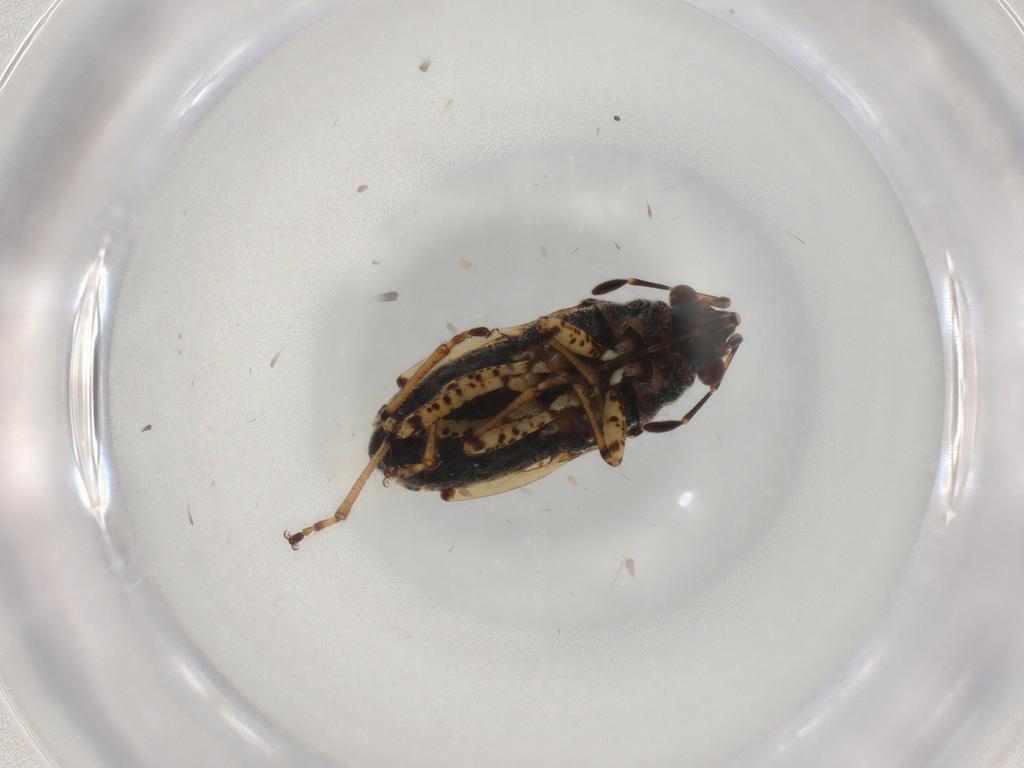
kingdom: Animalia
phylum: Arthropoda
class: Insecta
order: Hemiptera
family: Lygaeidae
